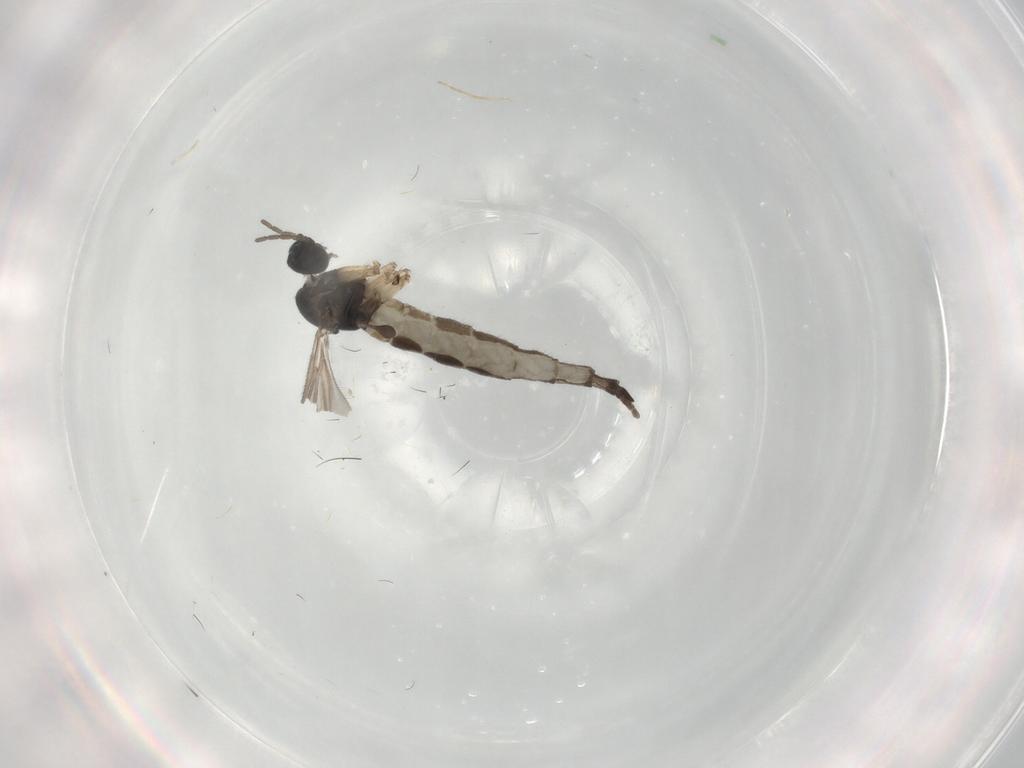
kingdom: Animalia
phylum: Arthropoda
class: Insecta
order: Diptera
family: Sciaridae
